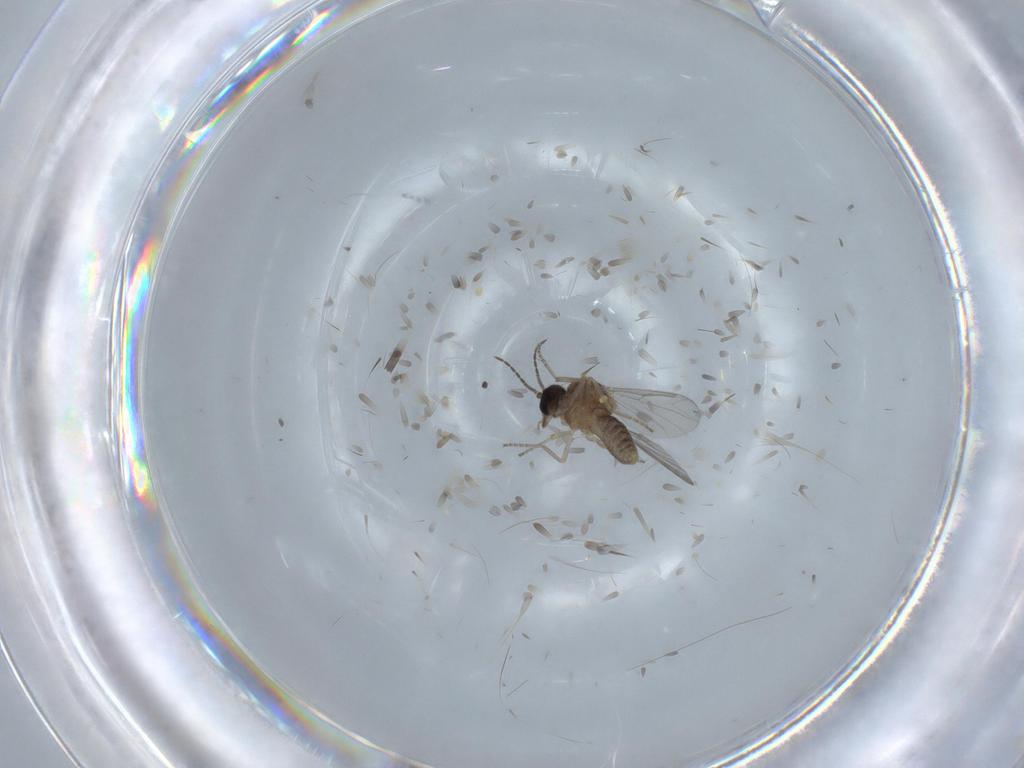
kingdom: Animalia
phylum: Arthropoda
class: Insecta
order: Diptera
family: Ceratopogonidae
